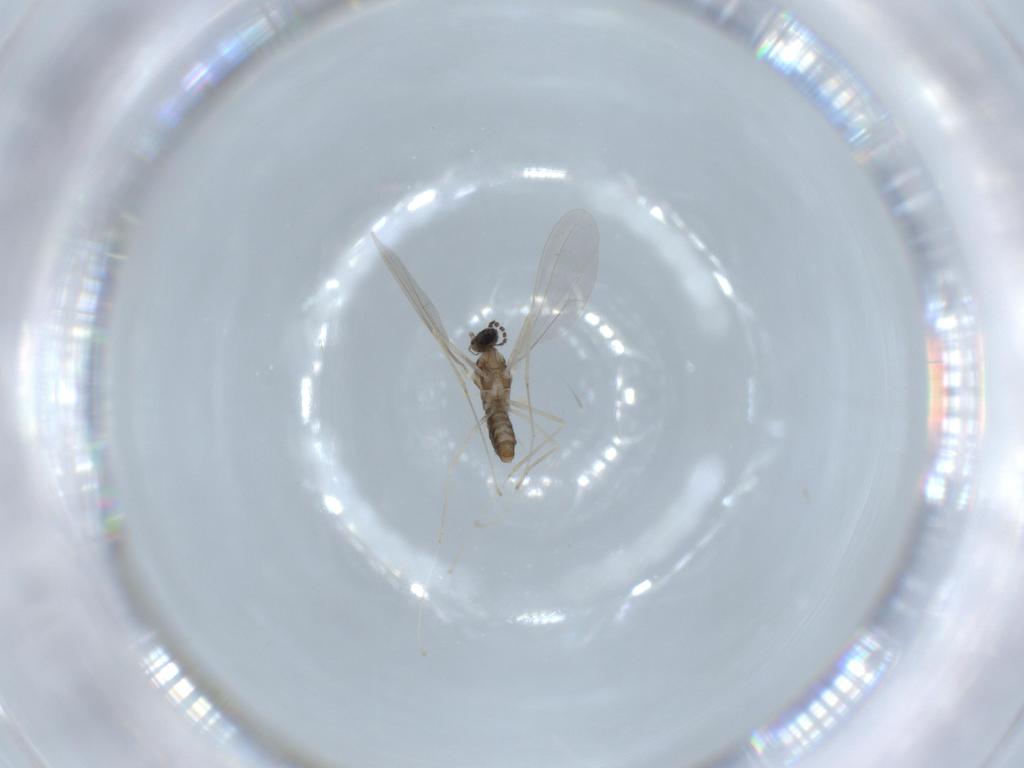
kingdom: Animalia
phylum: Arthropoda
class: Insecta
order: Diptera
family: Cecidomyiidae
